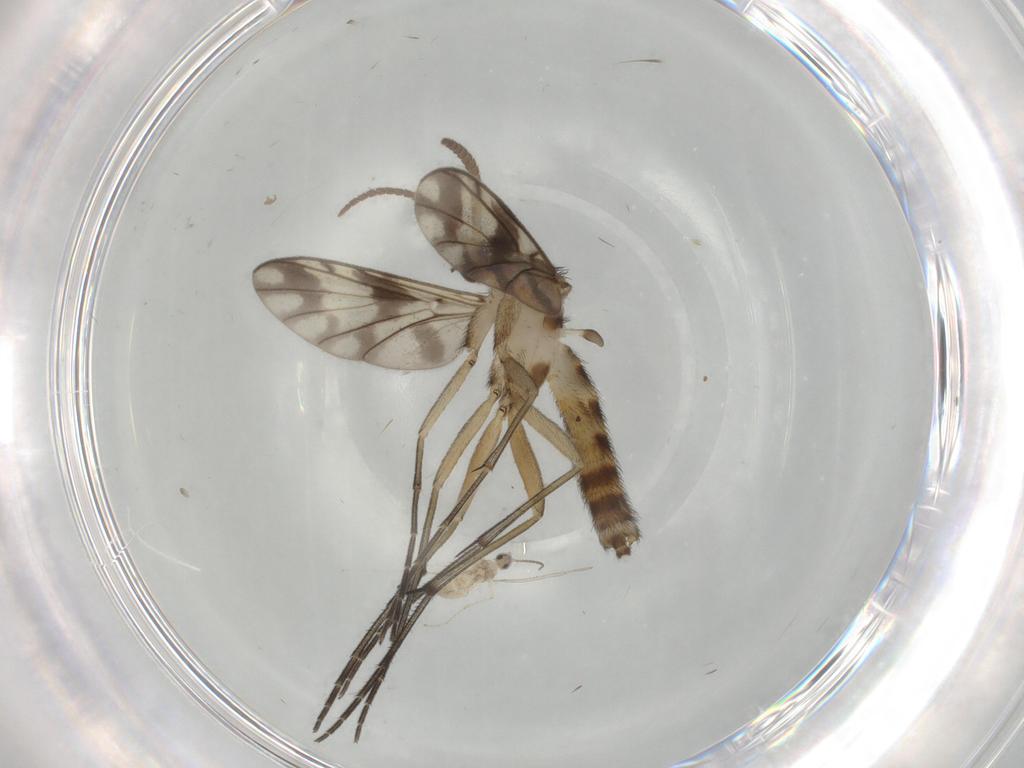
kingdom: Animalia
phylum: Arthropoda
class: Insecta
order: Diptera
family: Keroplatidae
